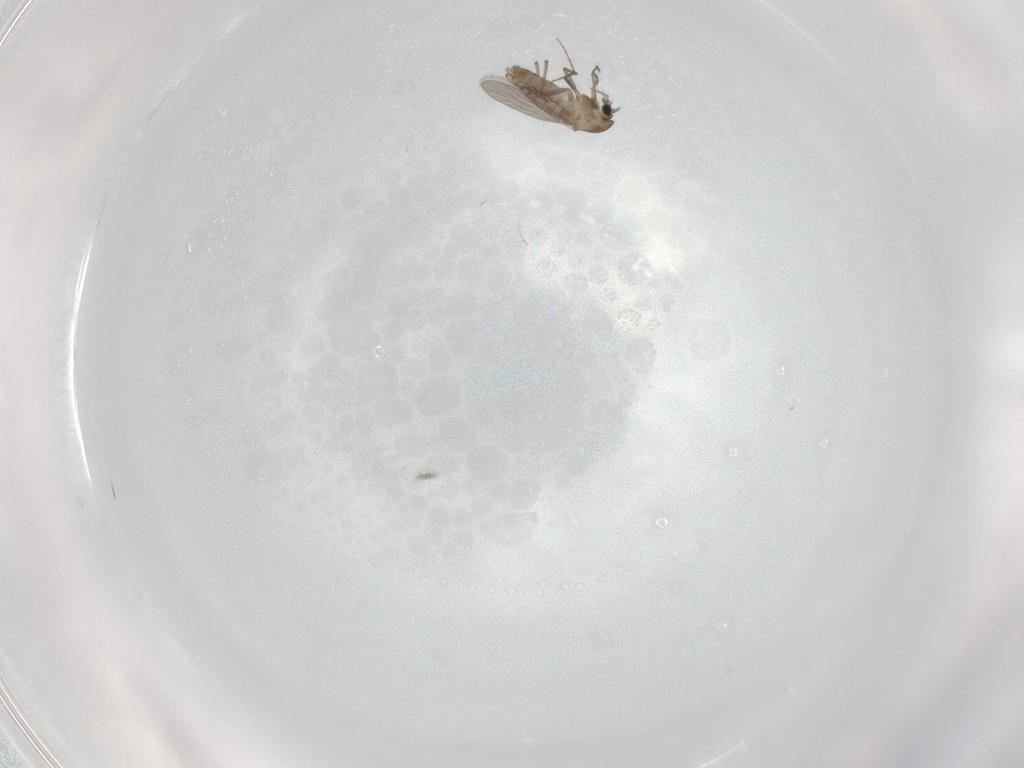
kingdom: Animalia
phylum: Arthropoda
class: Insecta
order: Diptera
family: Chironomidae
